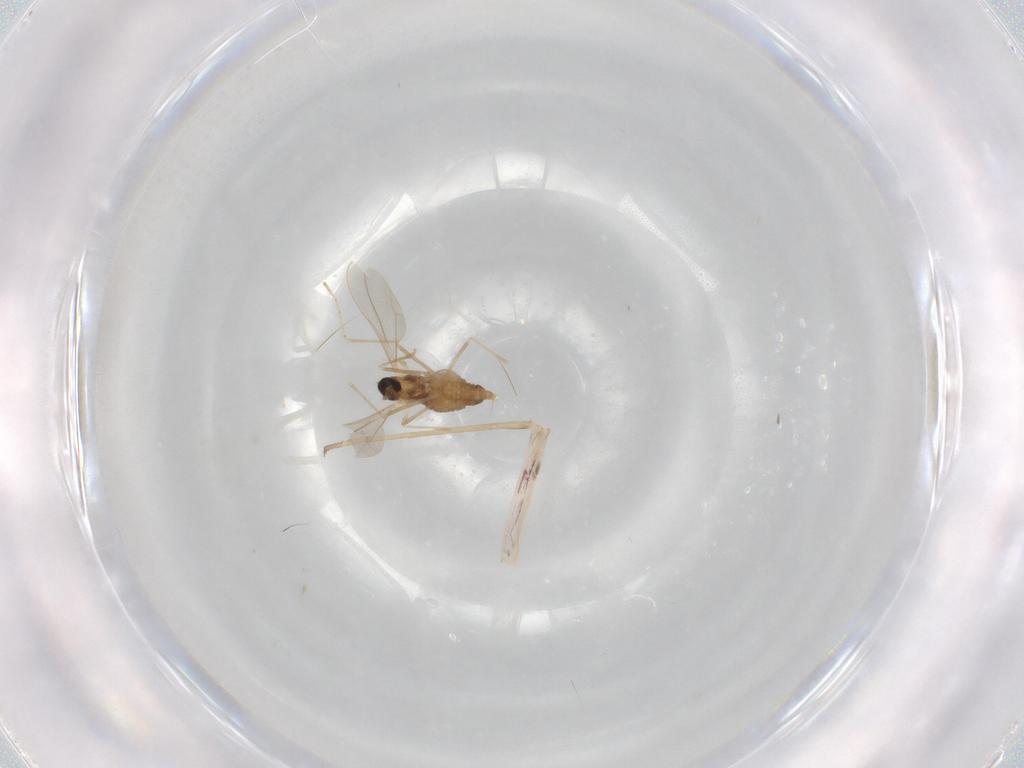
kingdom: Animalia
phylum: Arthropoda
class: Insecta
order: Diptera
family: Cecidomyiidae
